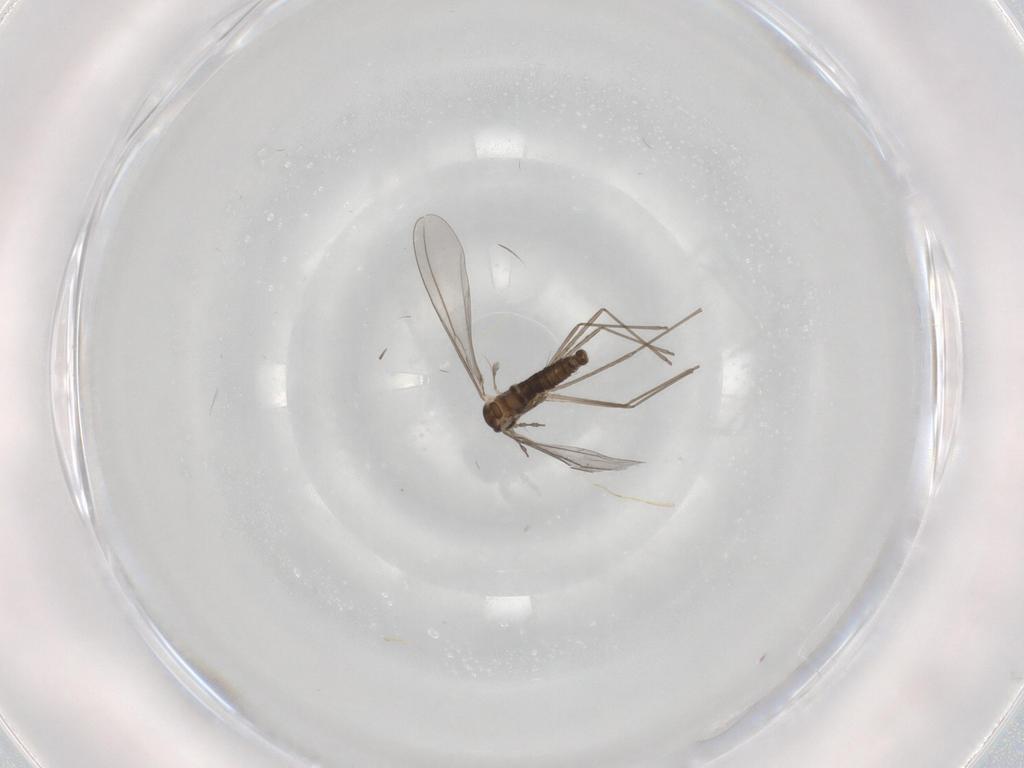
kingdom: Animalia
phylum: Arthropoda
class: Insecta
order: Diptera
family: Cecidomyiidae
